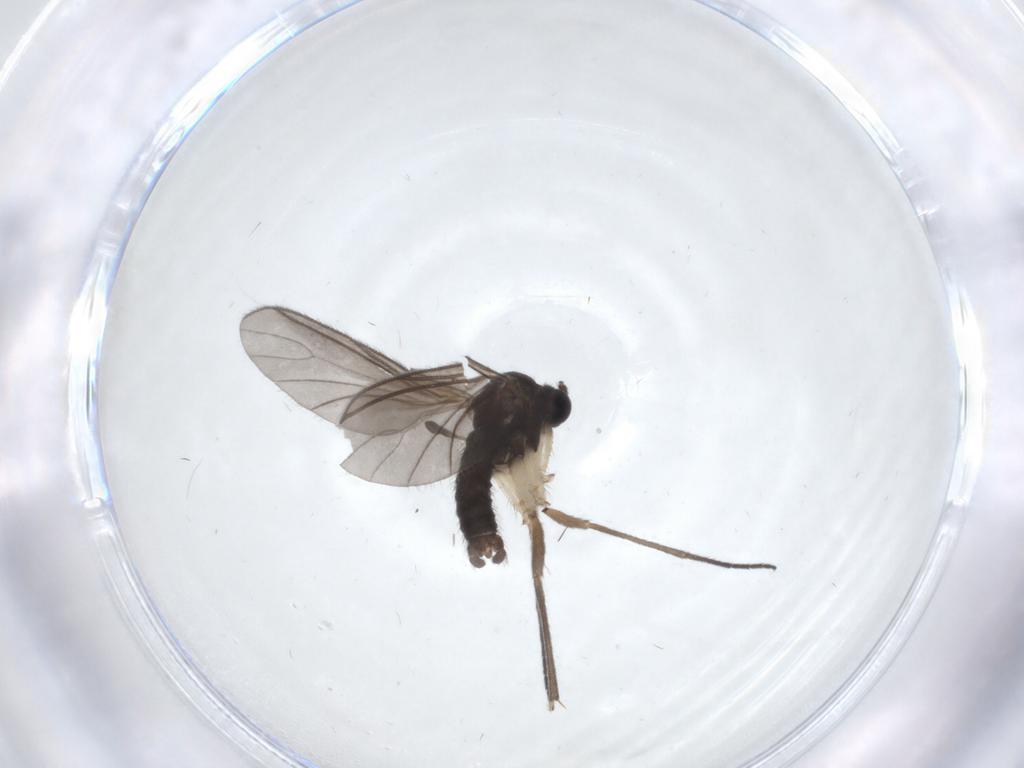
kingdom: Animalia
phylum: Arthropoda
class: Insecta
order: Diptera
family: Sciaridae
